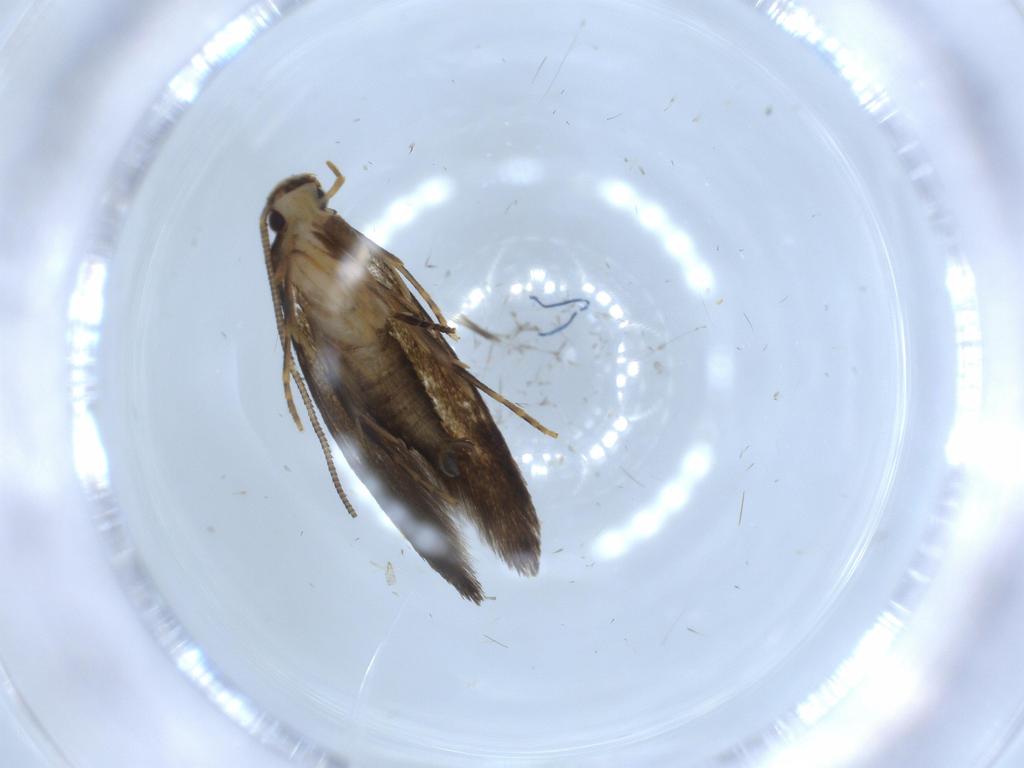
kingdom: Animalia
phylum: Arthropoda
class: Insecta
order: Lepidoptera
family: Tineidae
